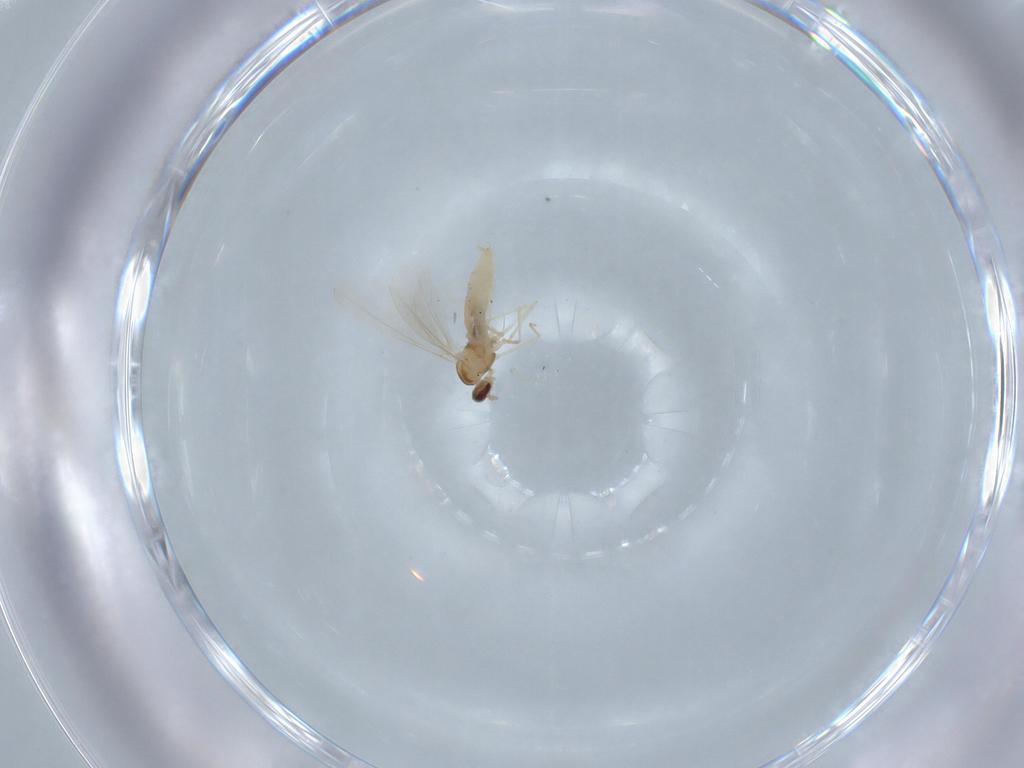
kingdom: Animalia
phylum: Arthropoda
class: Insecta
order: Diptera
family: Cecidomyiidae
